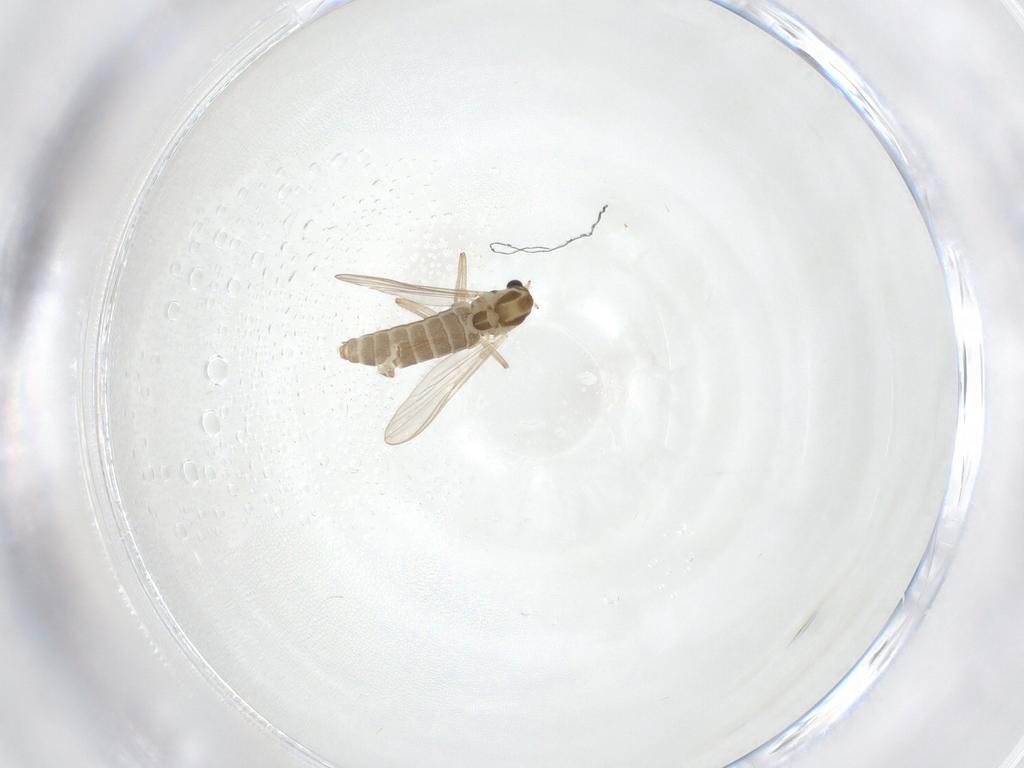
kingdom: Animalia
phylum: Arthropoda
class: Insecta
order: Diptera
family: Chironomidae
